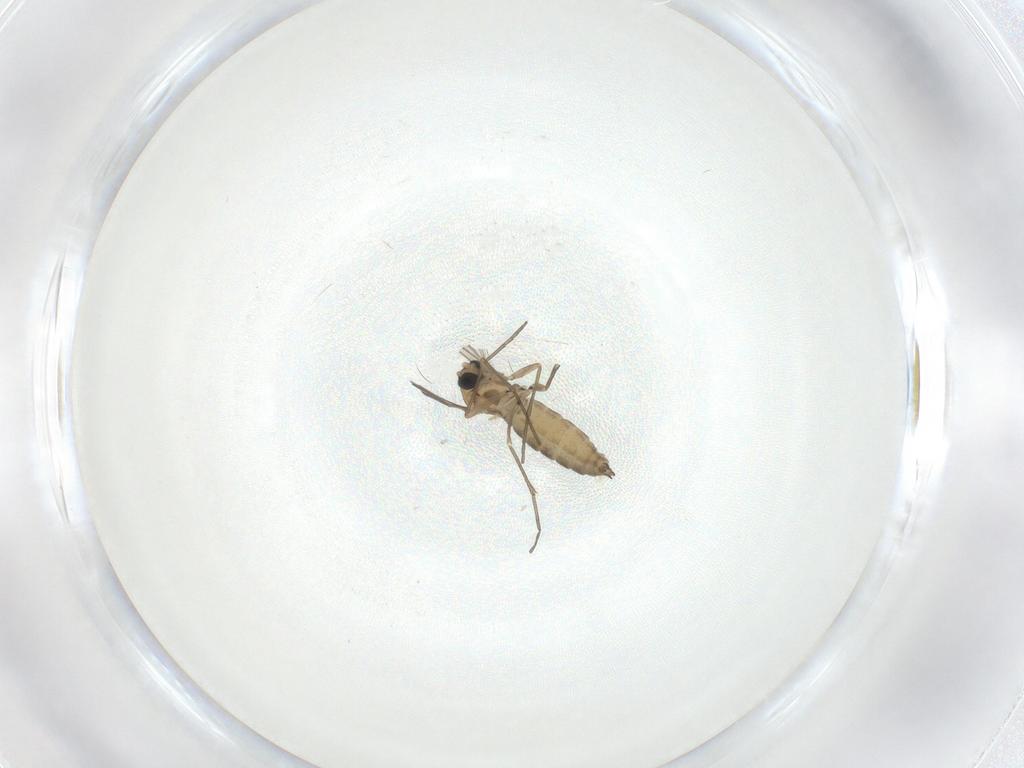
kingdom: Animalia
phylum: Arthropoda
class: Insecta
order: Diptera
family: Sciaridae
